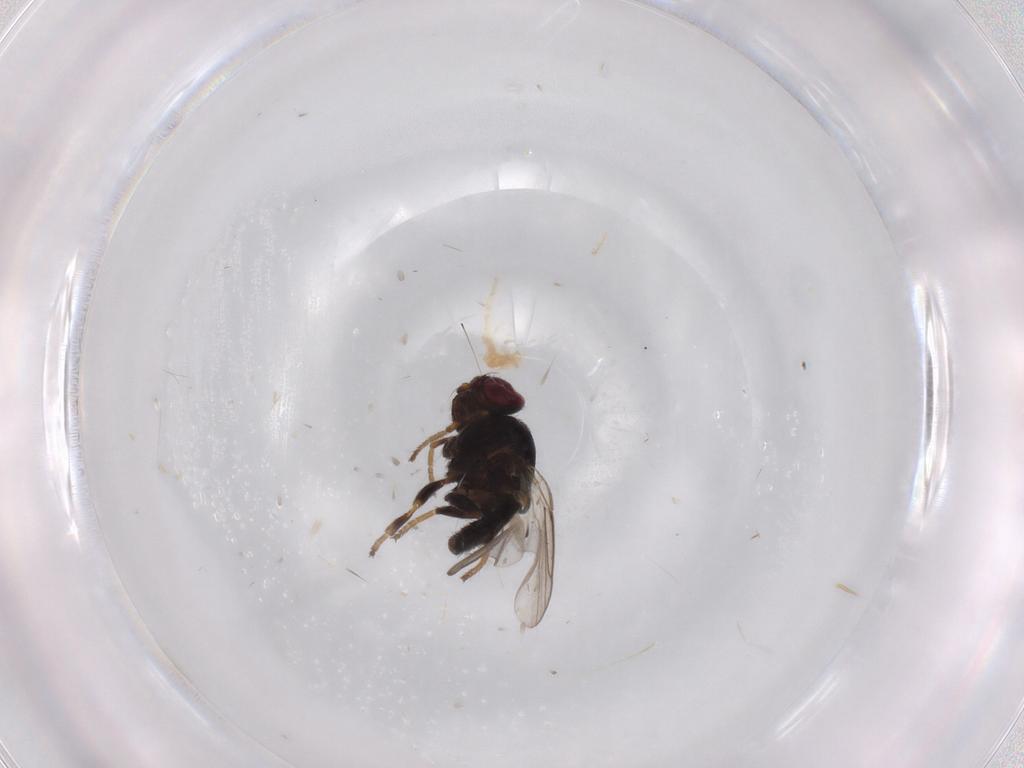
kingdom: Animalia
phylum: Arthropoda
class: Insecta
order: Diptera
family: Chloropidae
